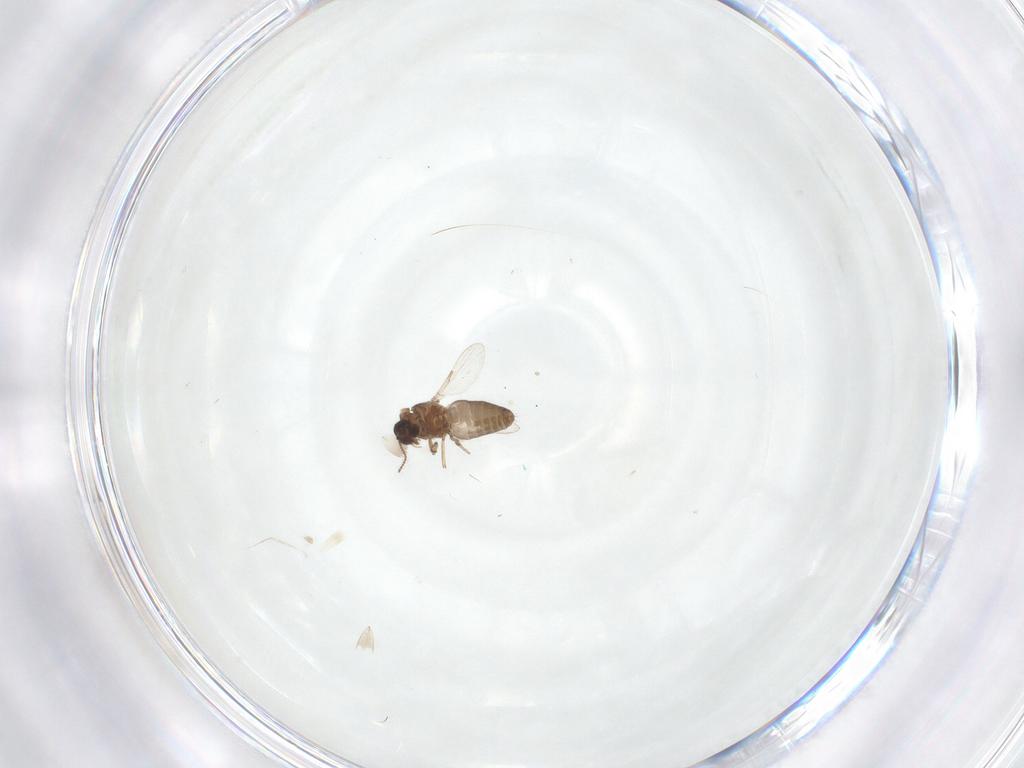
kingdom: Animalia
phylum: Arthropoda
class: Insecta
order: Diptera
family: Ceratopogonidae
